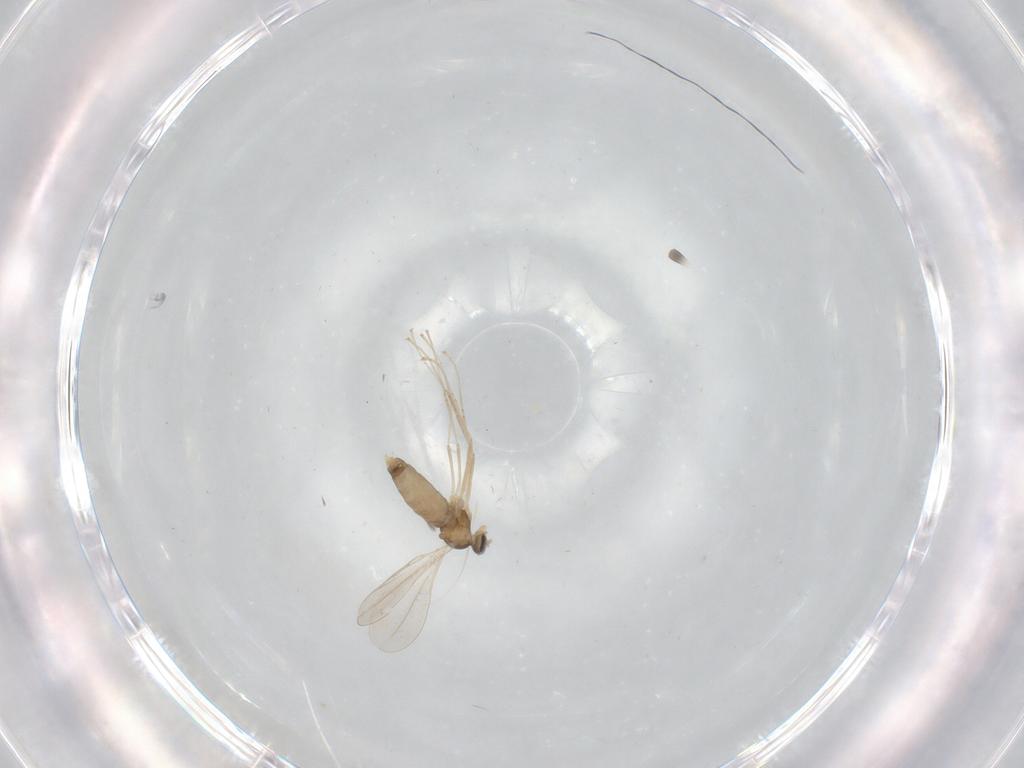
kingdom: Animalia
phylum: Arthropoda
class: Insecta
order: Diptera
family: Cecidomyiidae
